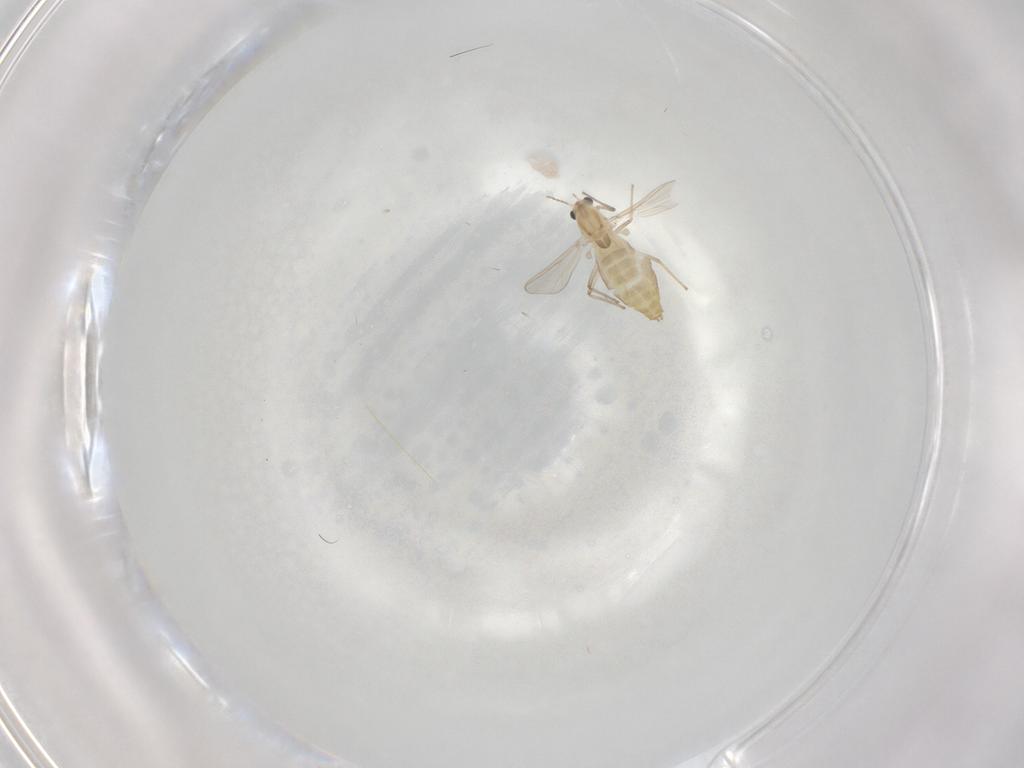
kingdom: Animalia
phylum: Arthropoda
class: Insecta
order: Diptera
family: Chironomidae
